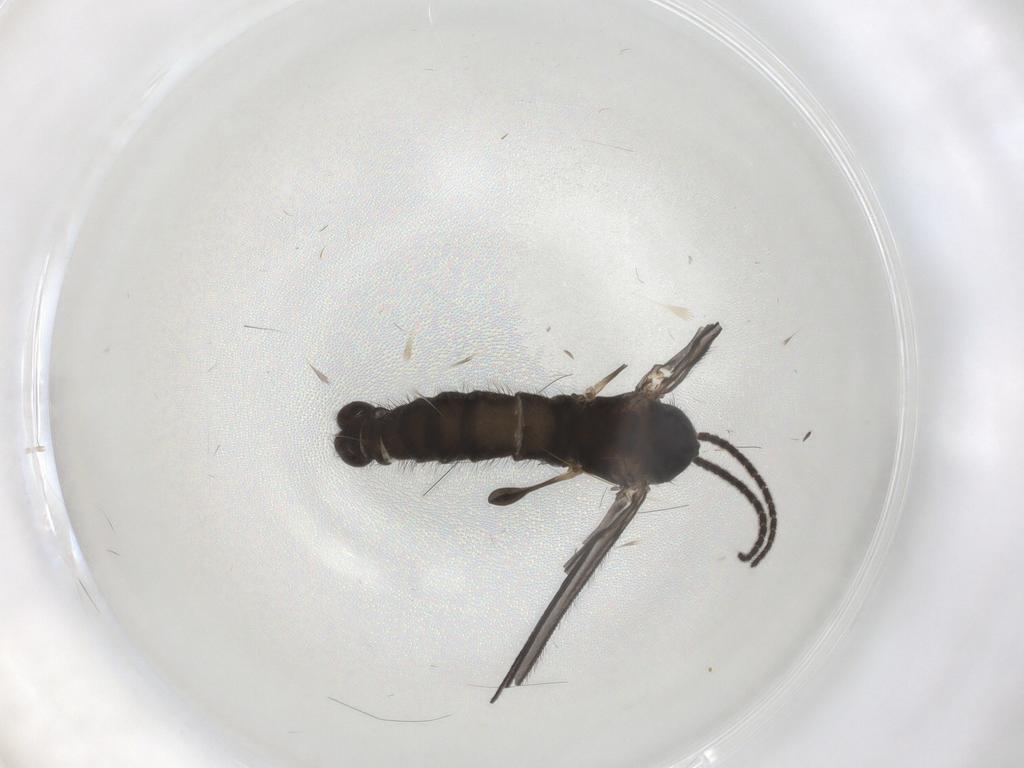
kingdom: Animalia
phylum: Arthropoda
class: Insecta
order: Diptera
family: Sciaridae
